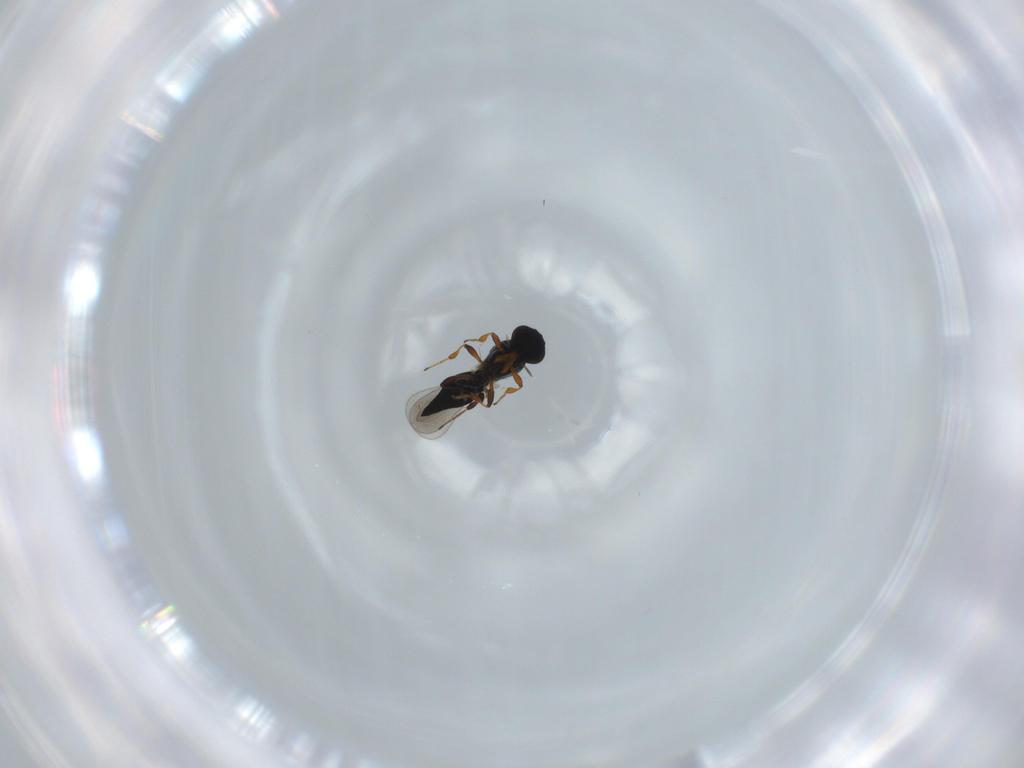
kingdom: Animalia
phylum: Arthropoda
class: Insecta
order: Hymenoptera
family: Platygastridae
